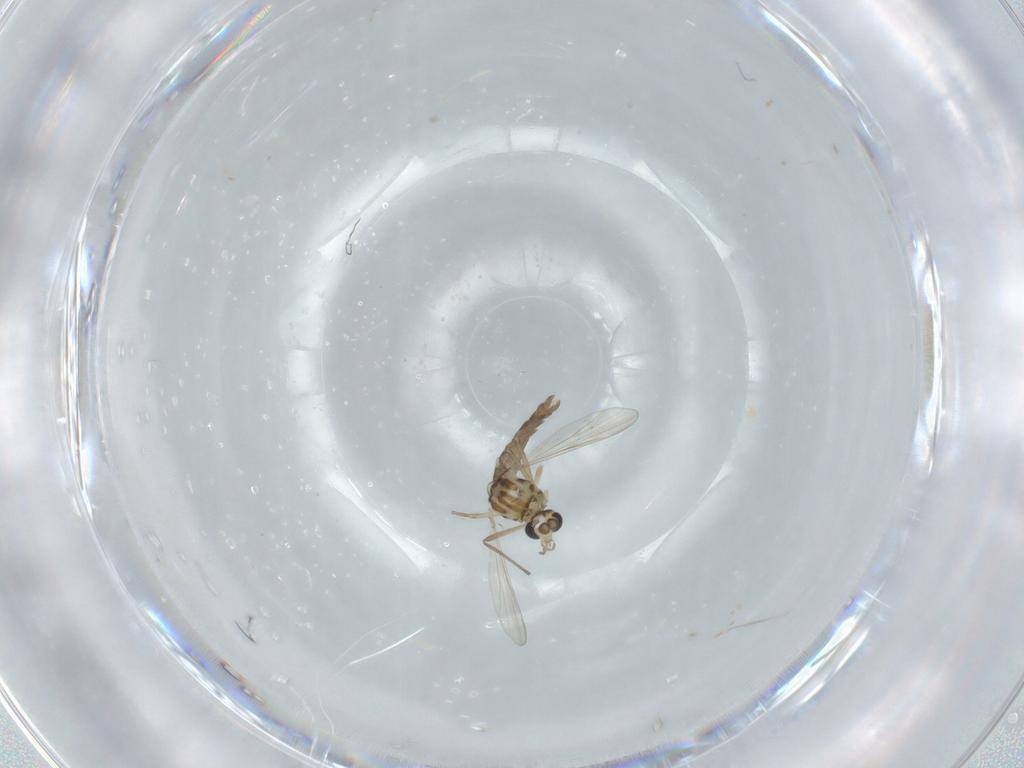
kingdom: Animalia
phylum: Arthropoda
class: Insecta
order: Diptera
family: Chironomidae
